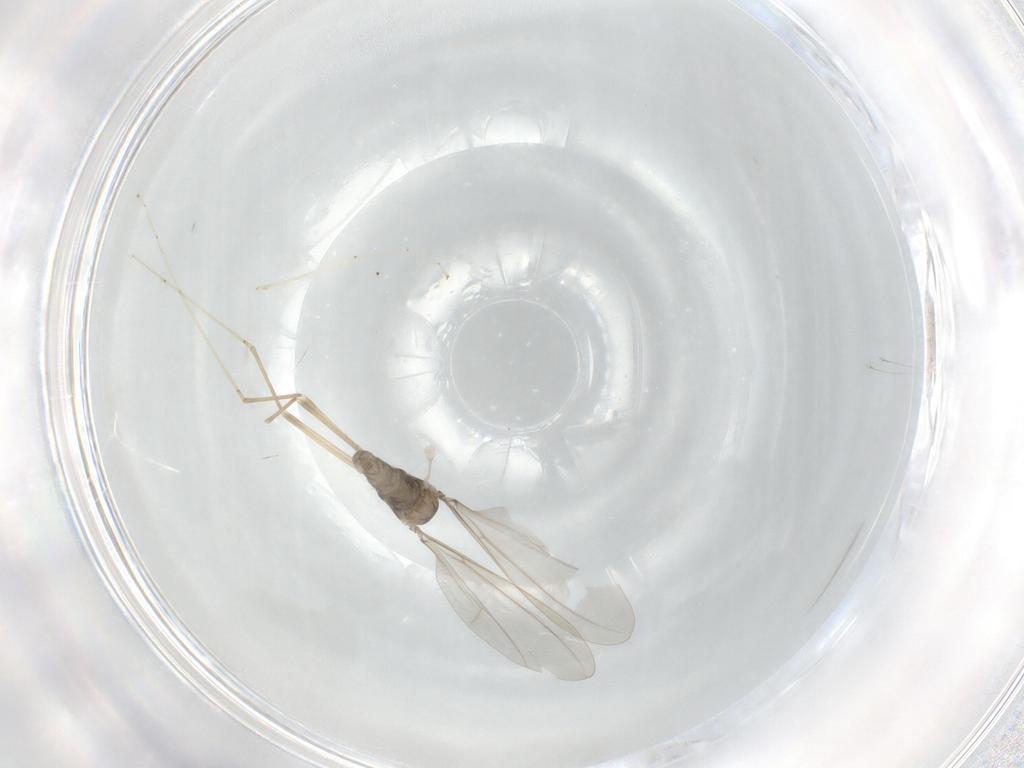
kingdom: Animalia
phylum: Arthropoda
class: Insecta
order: Diptera
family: Cecidomyiidae
